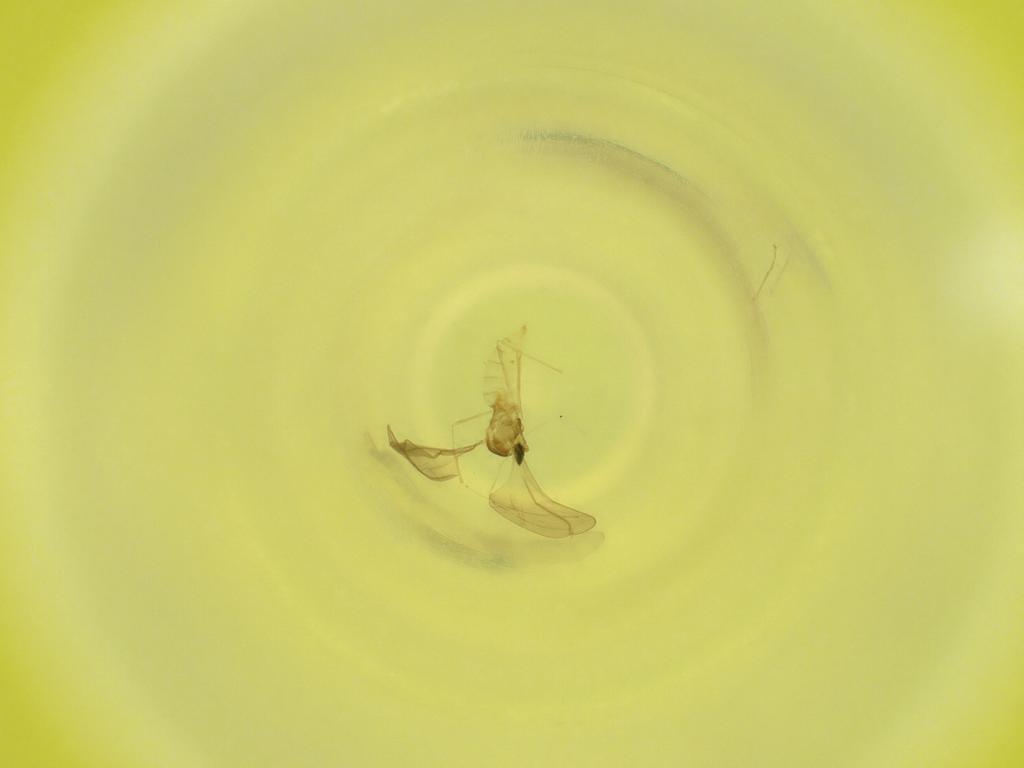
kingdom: Animalia
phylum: Arthropoda
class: Insecta
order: Diptera
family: Cecidomyiidae
